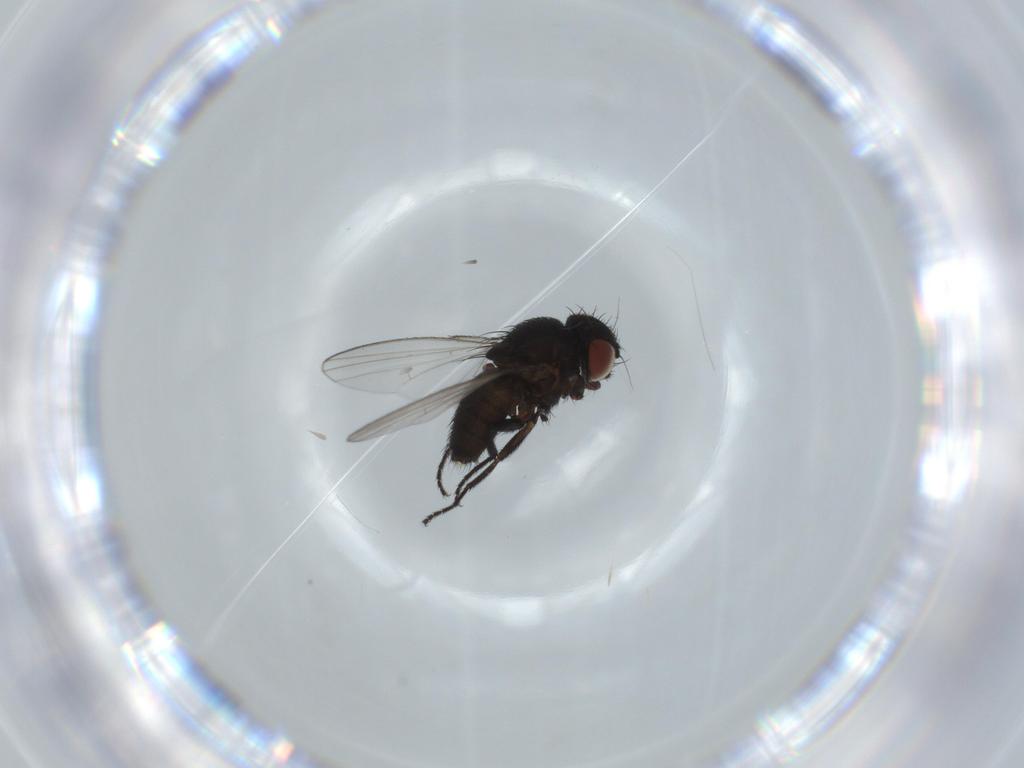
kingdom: Animalia
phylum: Arthropoda
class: Insecta
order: Diptera
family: Milichiidae
